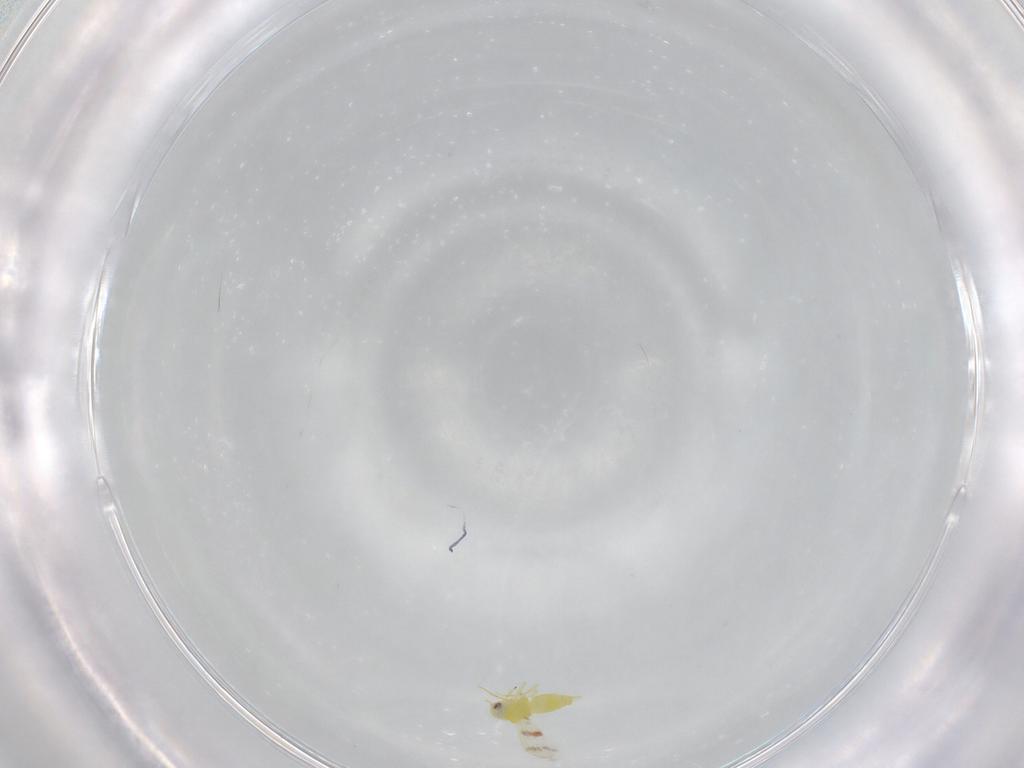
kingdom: Animalia
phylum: Arthropoda
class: Insecta
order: Hemiptera
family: Aleyrodidae
